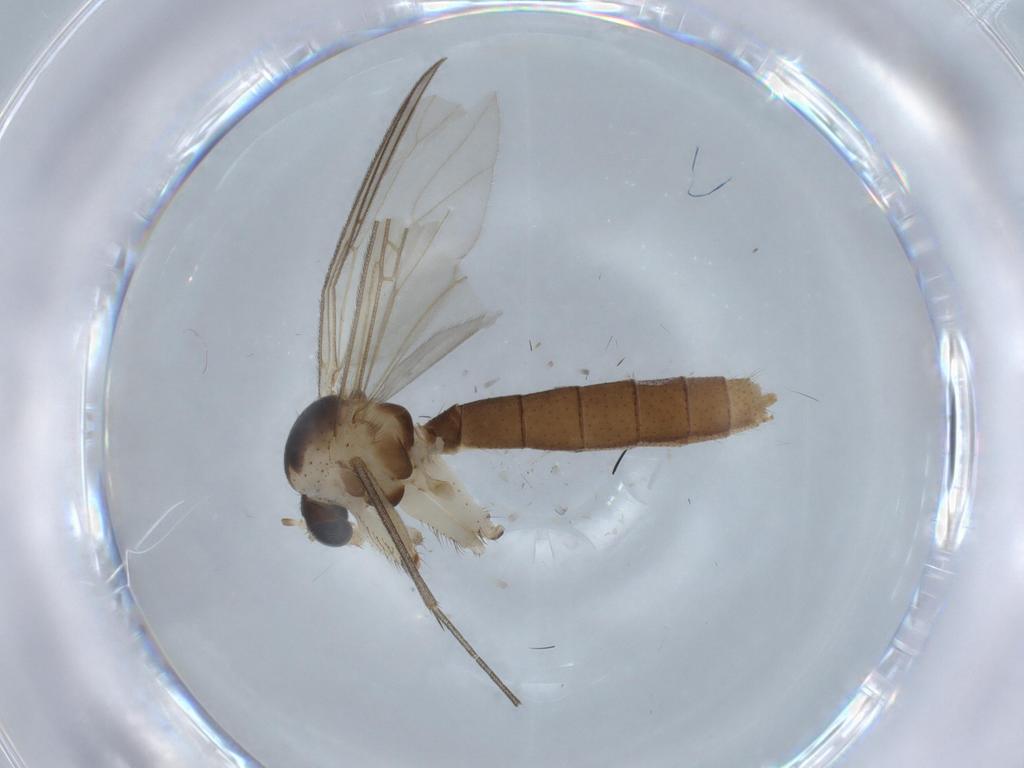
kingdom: Animalia
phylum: Arthropoda
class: Insecta
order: Diptera
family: Mycetophilidae
